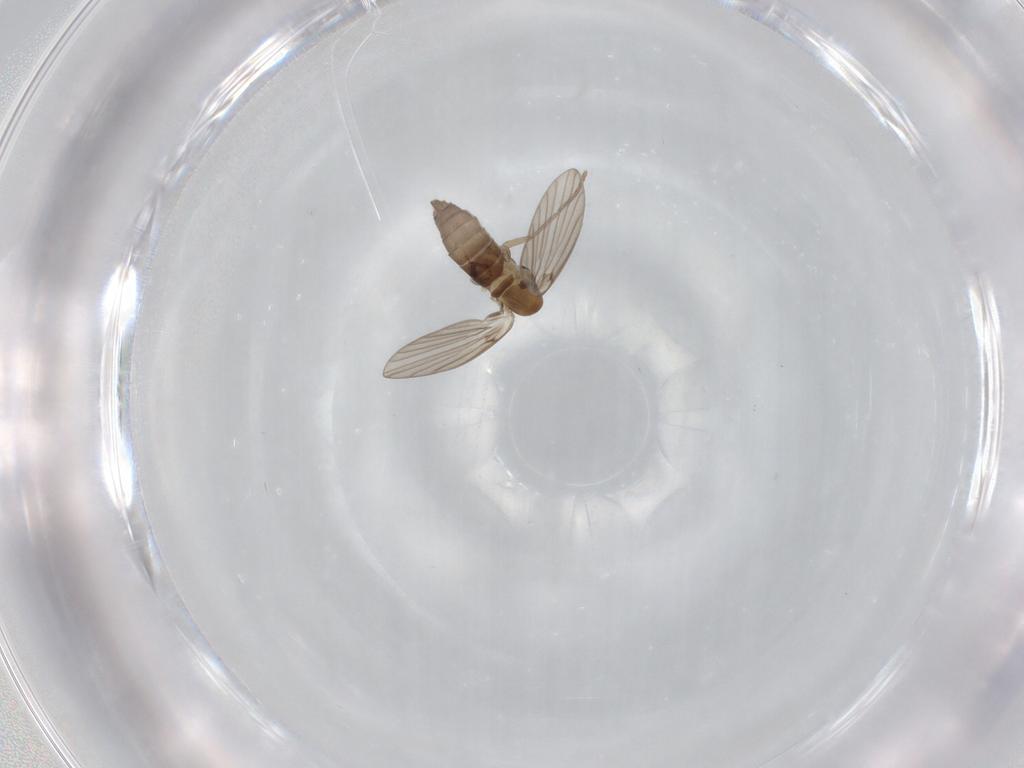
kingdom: Animalia
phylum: Arthropoda
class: Insecta
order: Diptera
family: Psychodidae
